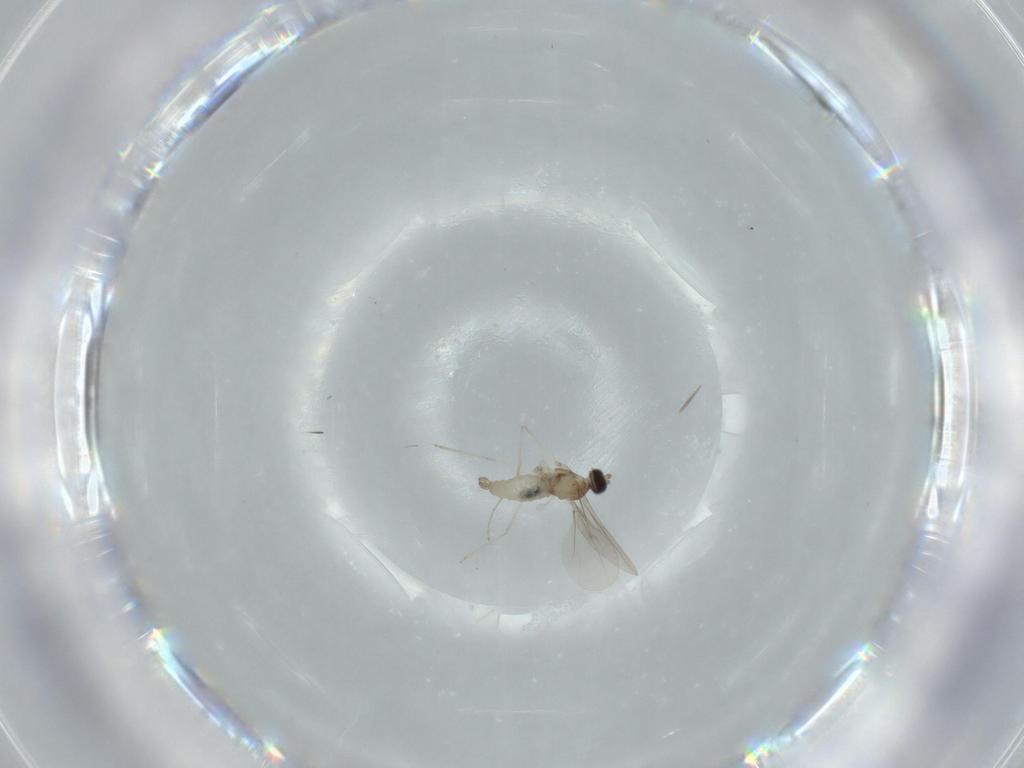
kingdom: Animalia
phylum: Arthropoda
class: Insecta
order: Diptera
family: Cecidomyiidae
